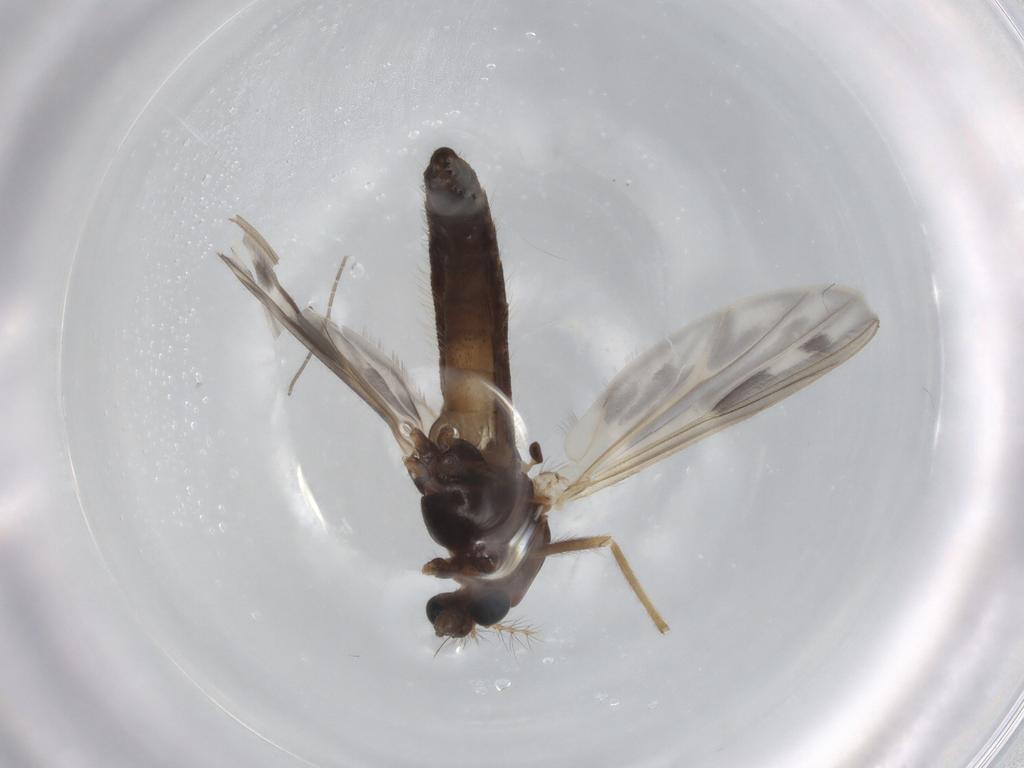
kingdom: Animalia
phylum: Arthropoda
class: Insecta
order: Diptera
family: Chironomidae
